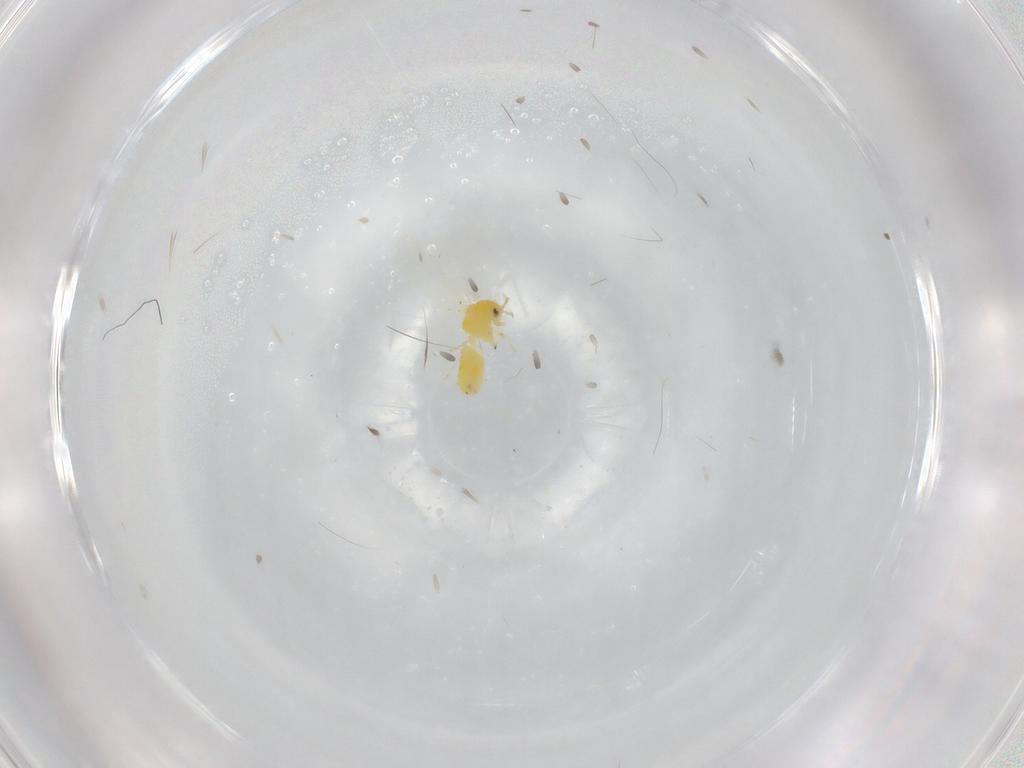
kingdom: Animalia
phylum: Arthropoda
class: Insecta
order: Hemiptera
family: Aleyrodidae
